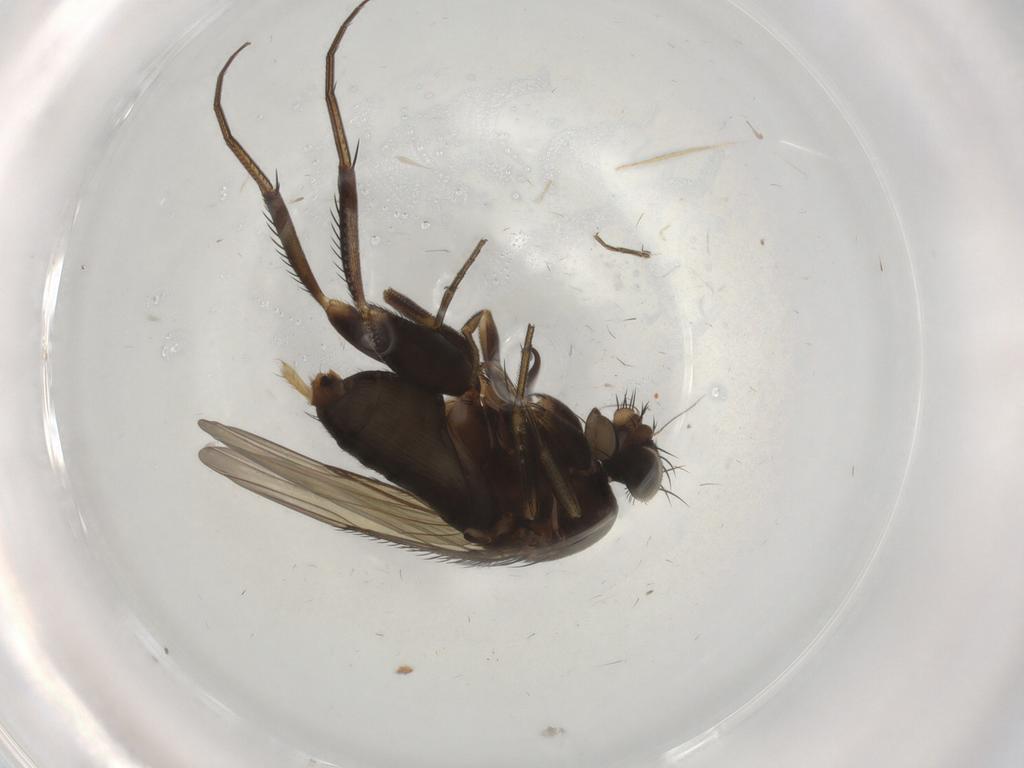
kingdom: Animalia
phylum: Arthropoda
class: Insecta
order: Diptera
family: Phoridae
